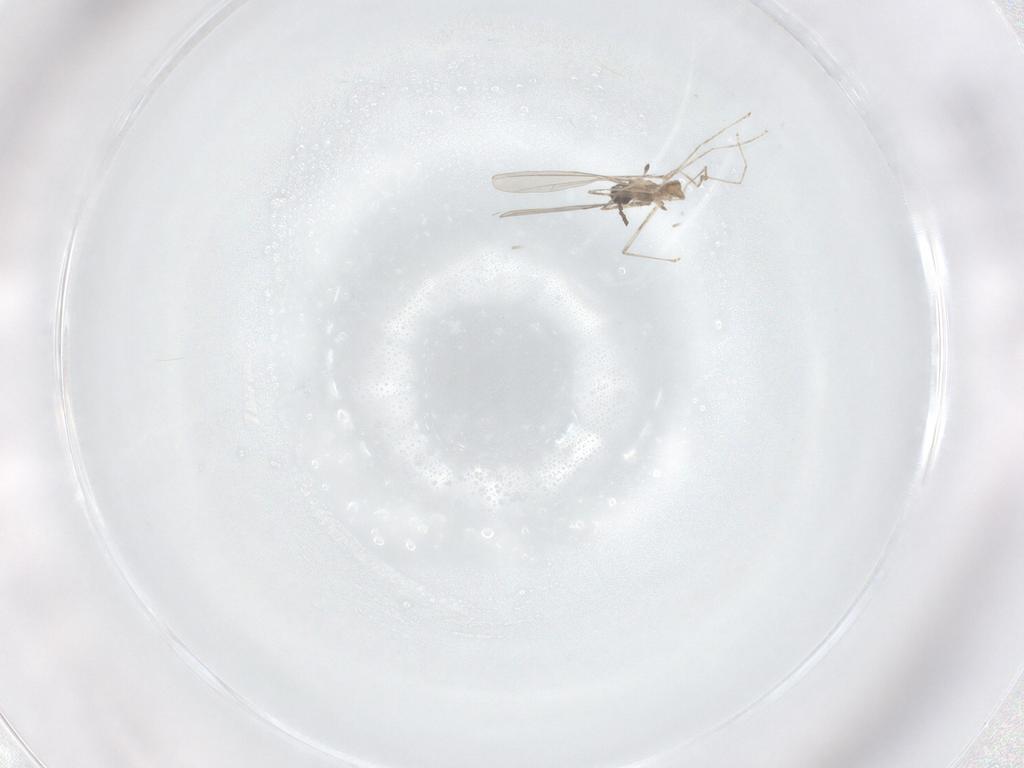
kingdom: Animalia
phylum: Arthropoda
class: Insecta
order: Diptera
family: Cecidomyiidae
